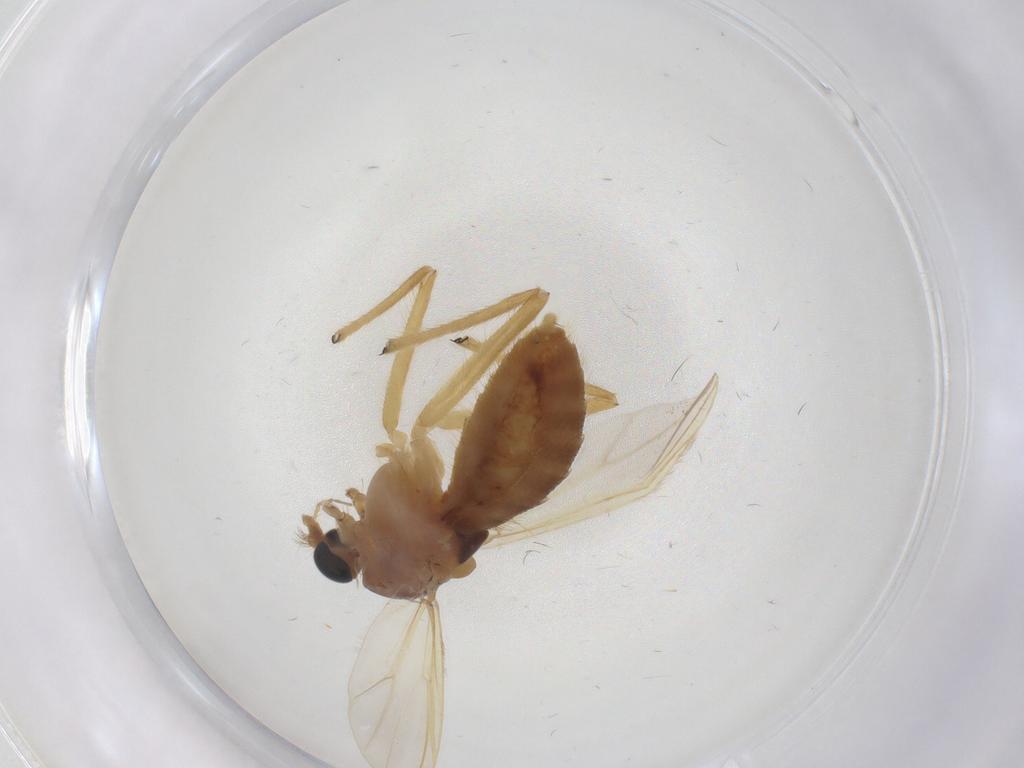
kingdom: Animalia
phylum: Arthropoda
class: Insecta
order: Diptera
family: Chironomidae
